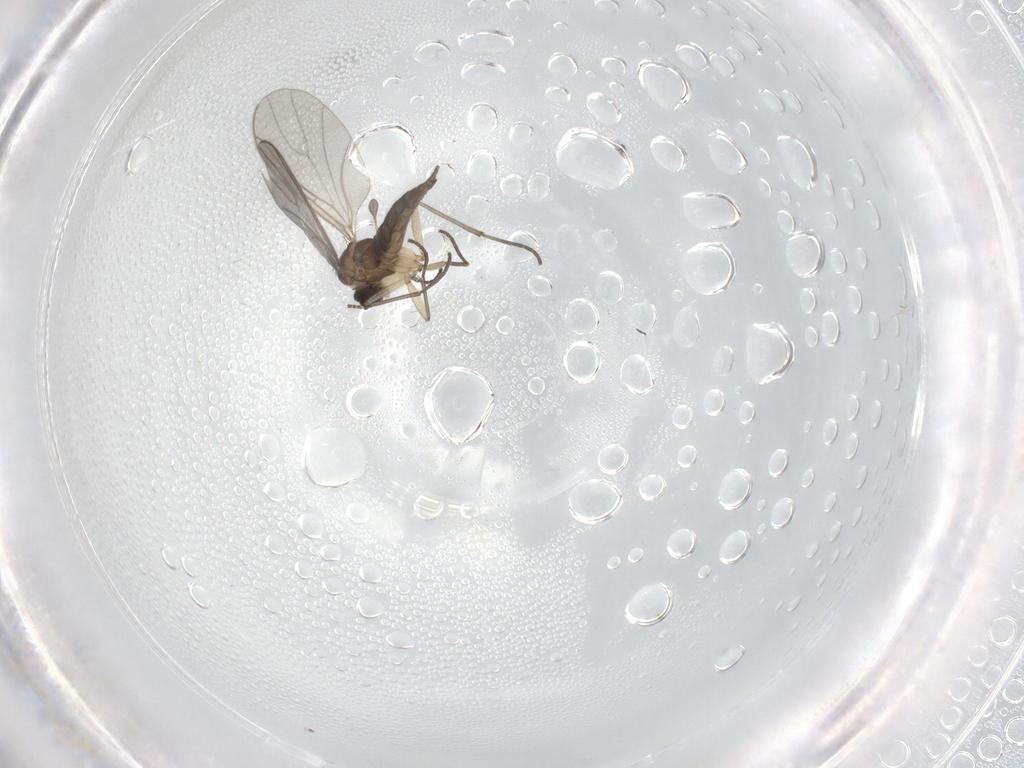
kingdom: Animalia
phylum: Arthropoda
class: Insecta
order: Diptera
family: Sciaridae
